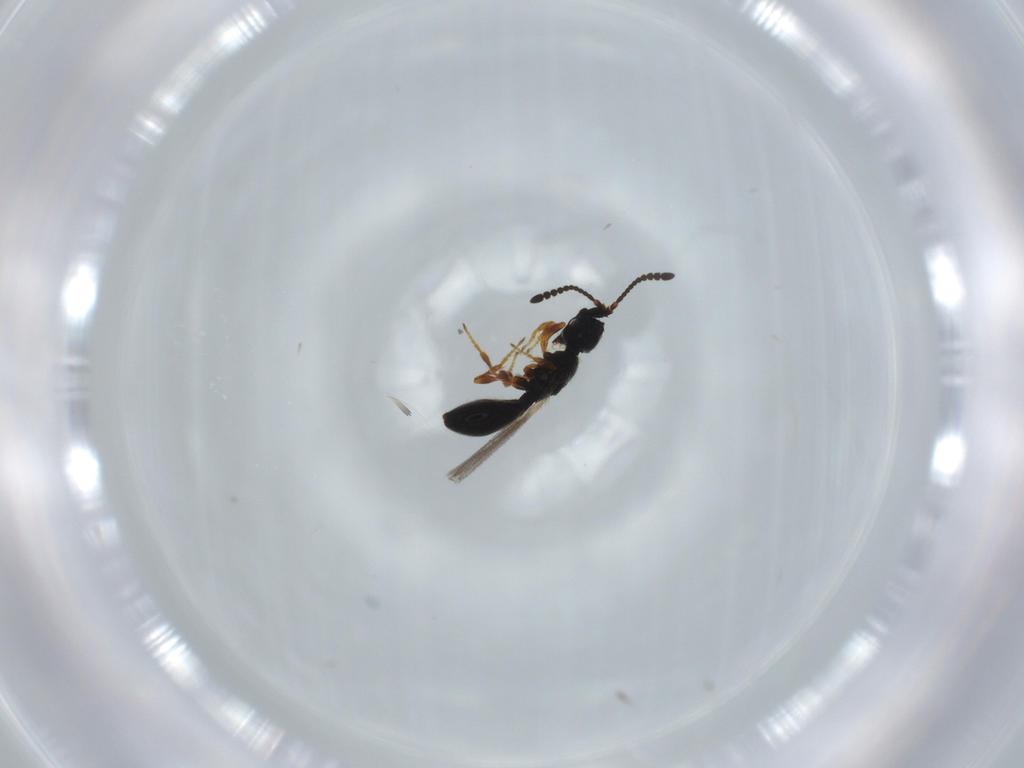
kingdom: Animalia
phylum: Arthropoda
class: Insecta
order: Hymenoptera
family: Diapriidae
